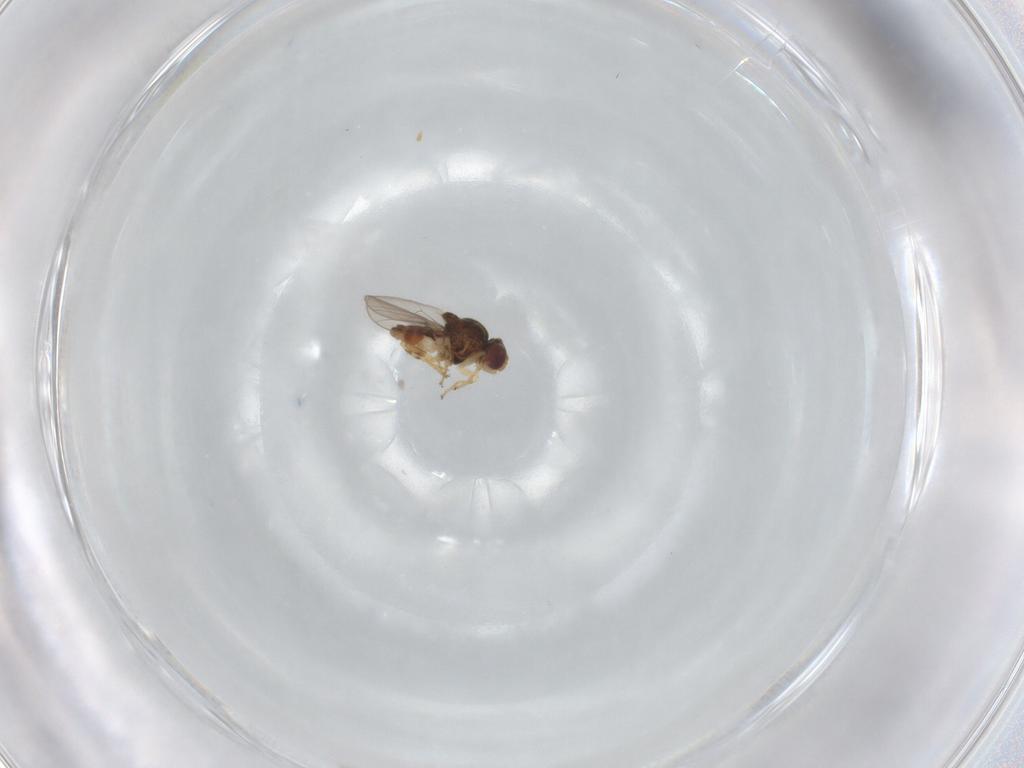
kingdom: Animalia
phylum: Arthropoda
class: Insecta
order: Diptera
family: Chloropidae
